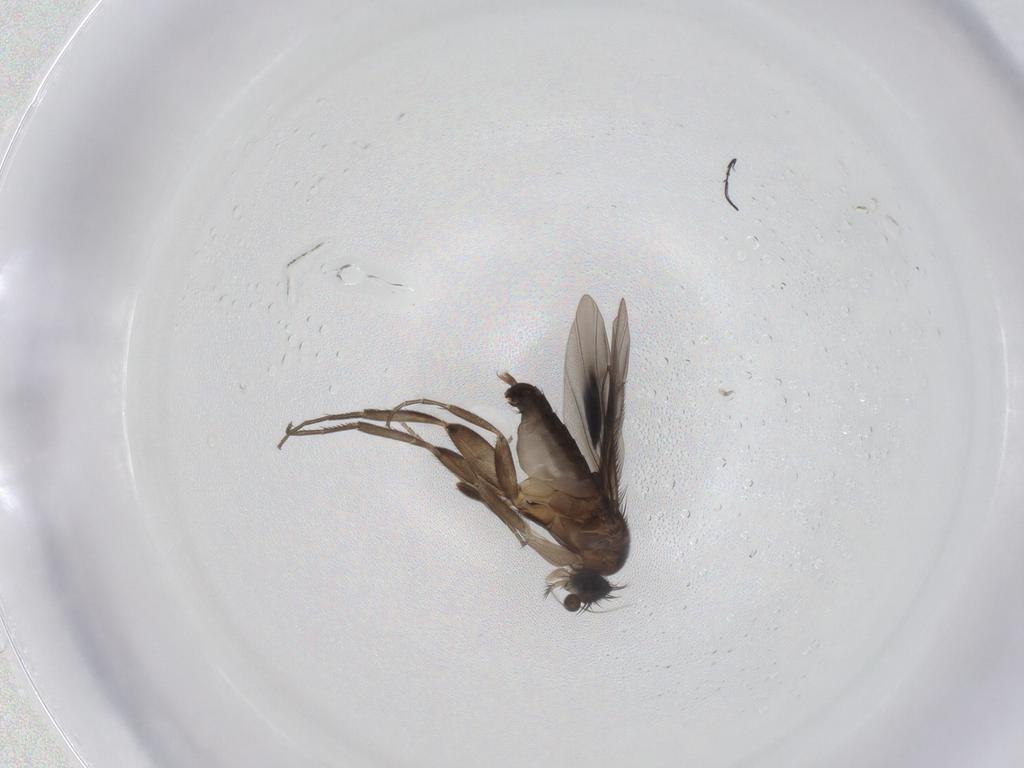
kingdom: Animalia
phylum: Arthropoda
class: Insecta
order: Diptera
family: Phoridae
